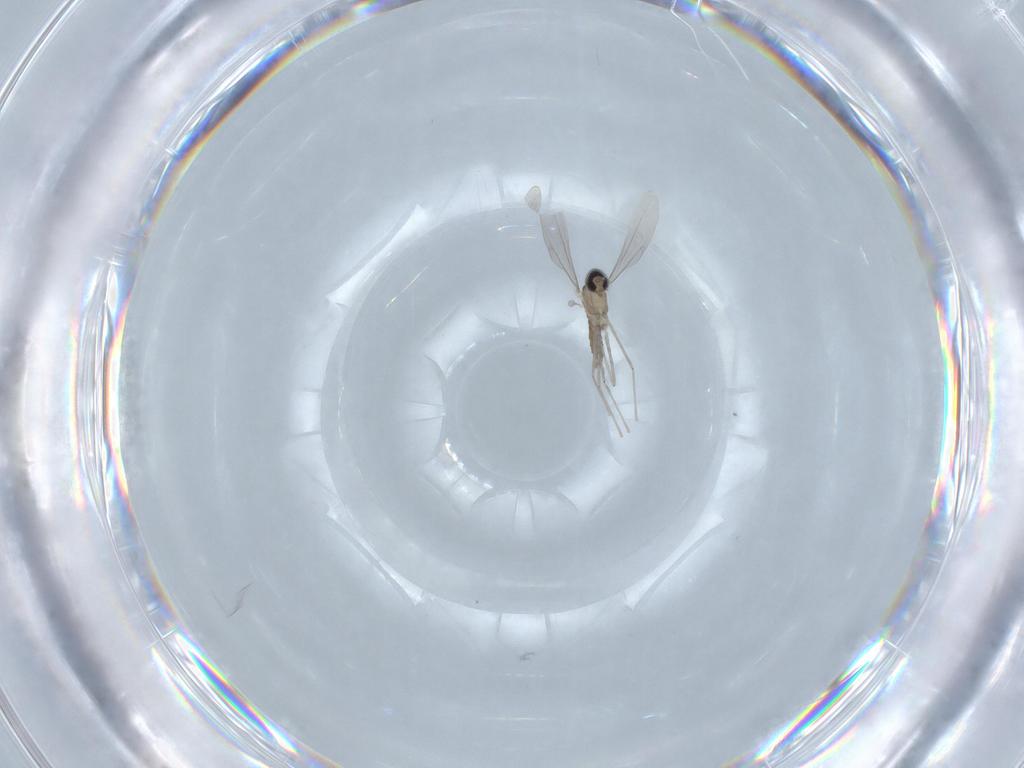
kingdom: Animalia
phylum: Arthropoda
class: Insecta
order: Diptera
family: Cecidomyiidae
